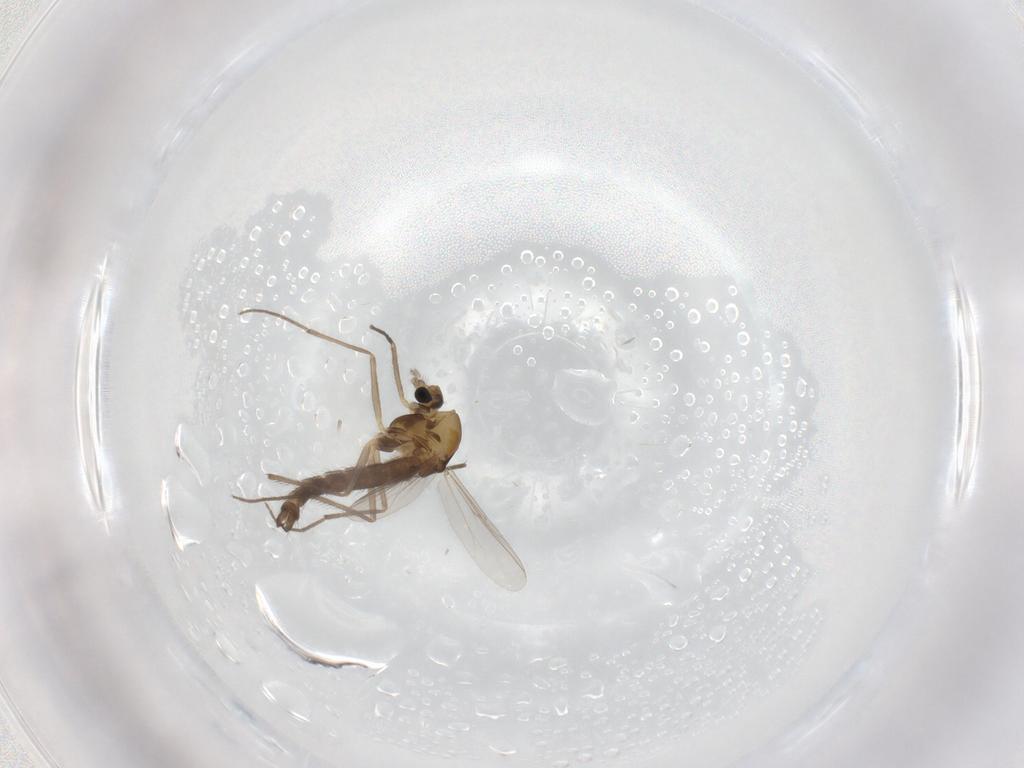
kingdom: Animalia
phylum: Arthropoda
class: Insecta
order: Diptera
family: Chironomidae
